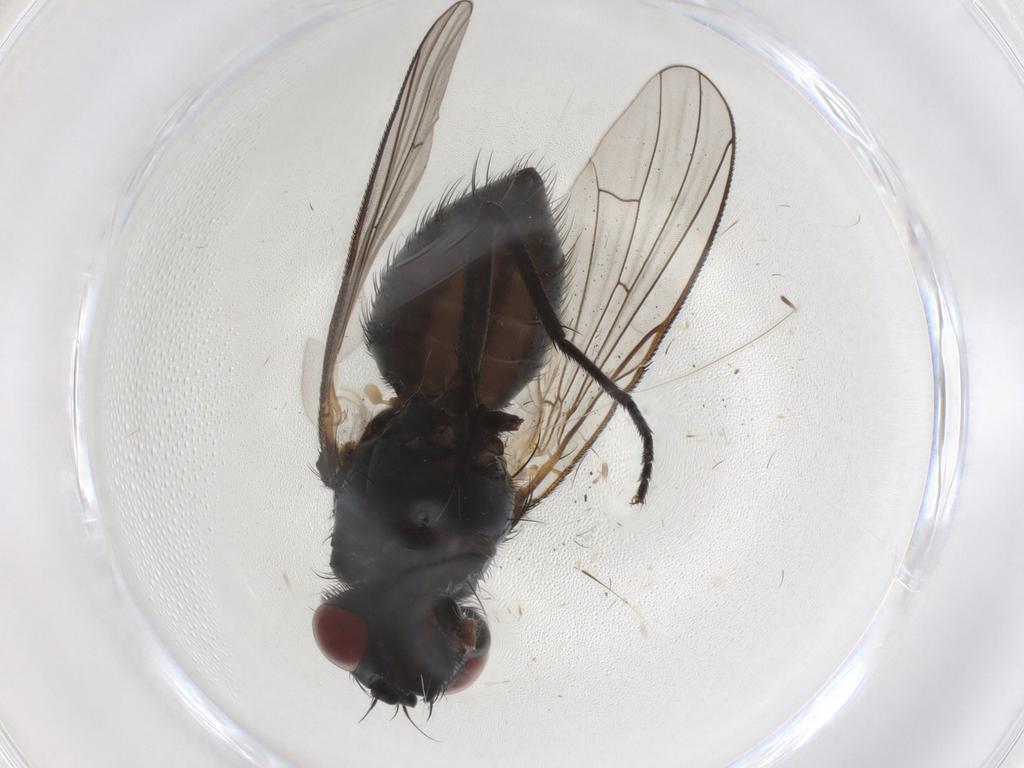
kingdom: Animalia
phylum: Arthropoda
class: Insecta
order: Diptera
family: Muscidae
